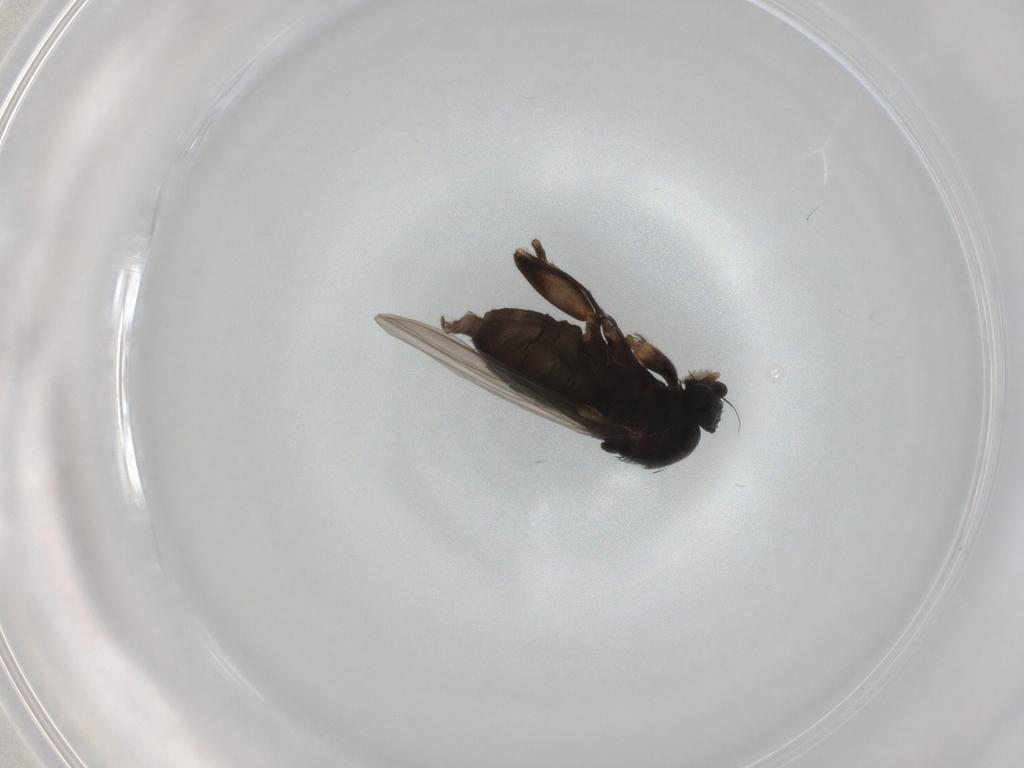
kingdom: Animalia
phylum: Arthropoda
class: Insecta
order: Diptera
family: Phoridae
